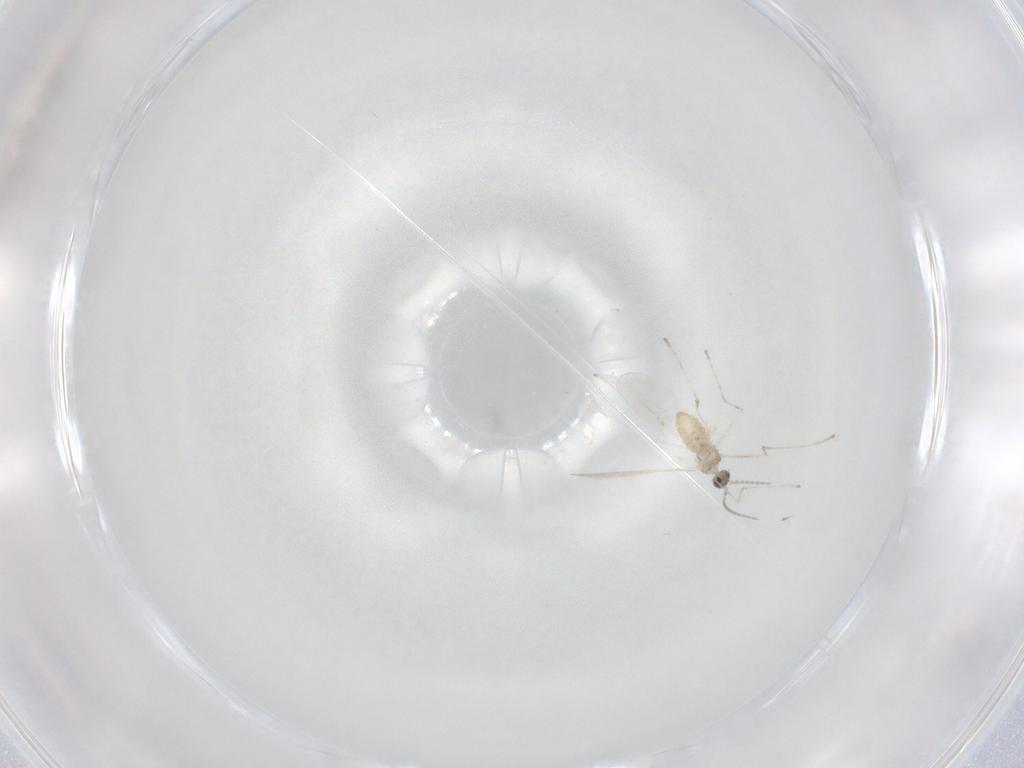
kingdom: Animalia
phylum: Arthropoda
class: Insecta
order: Diptera
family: Cecidomyiidae
